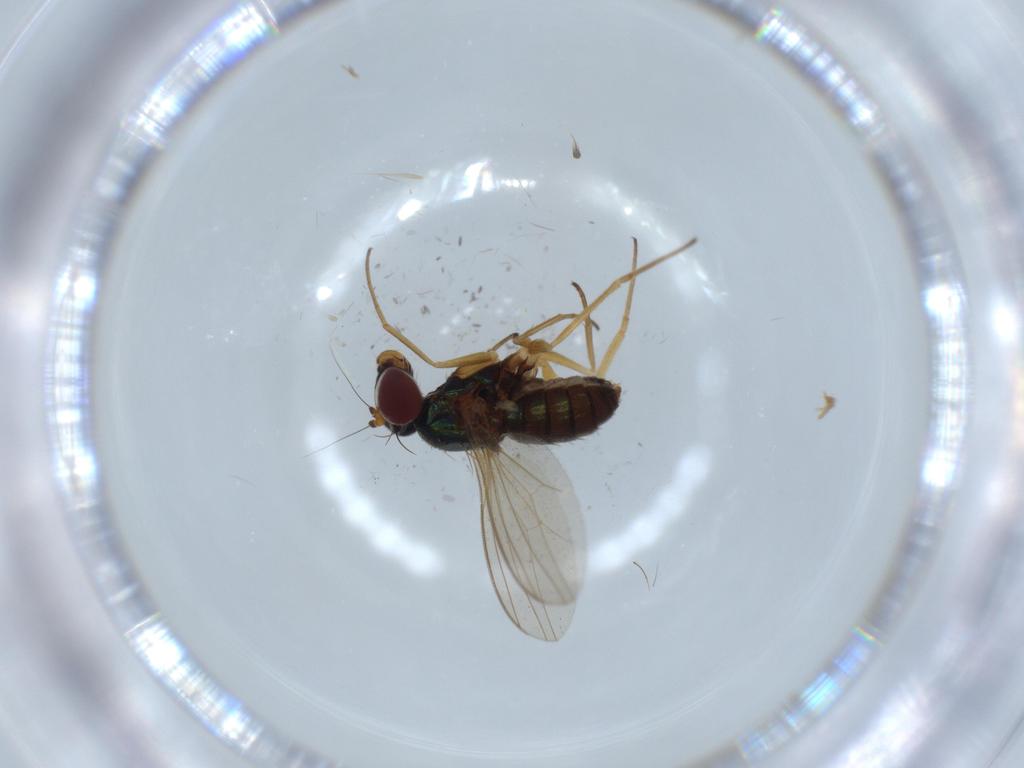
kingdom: Animalia
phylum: Arthropoda
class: Insecta
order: Diptera
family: Dolichopodidae
